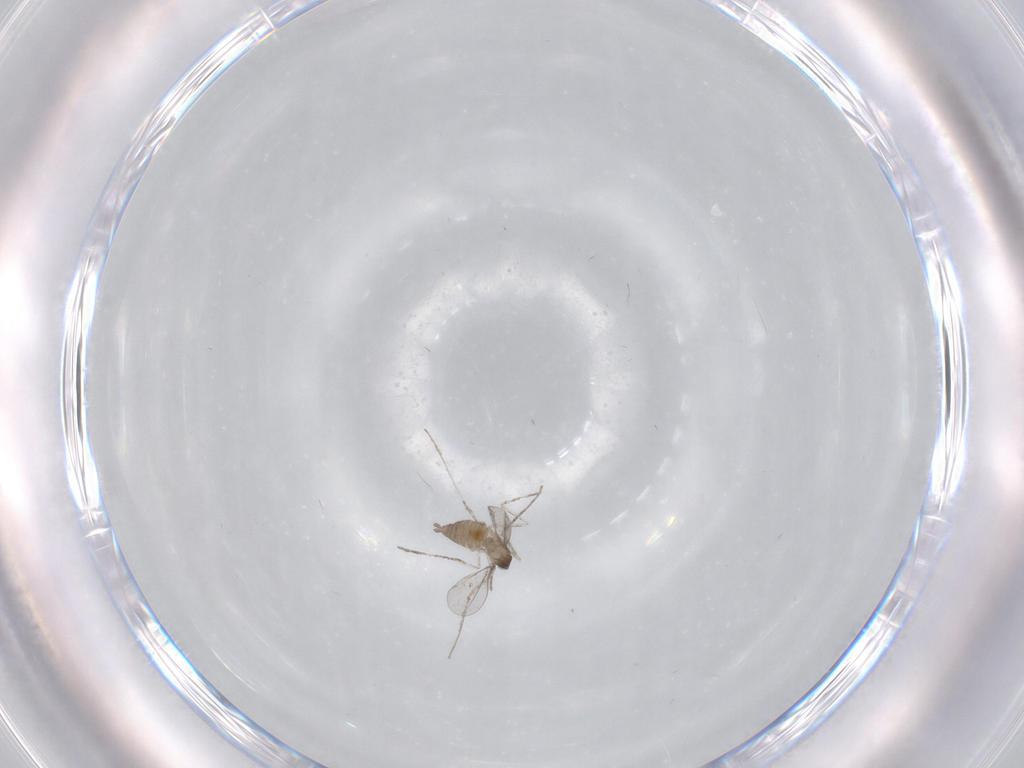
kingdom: Animalia
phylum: Arthropoda
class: Insecta
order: Diptera
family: Cecidomyiidae
